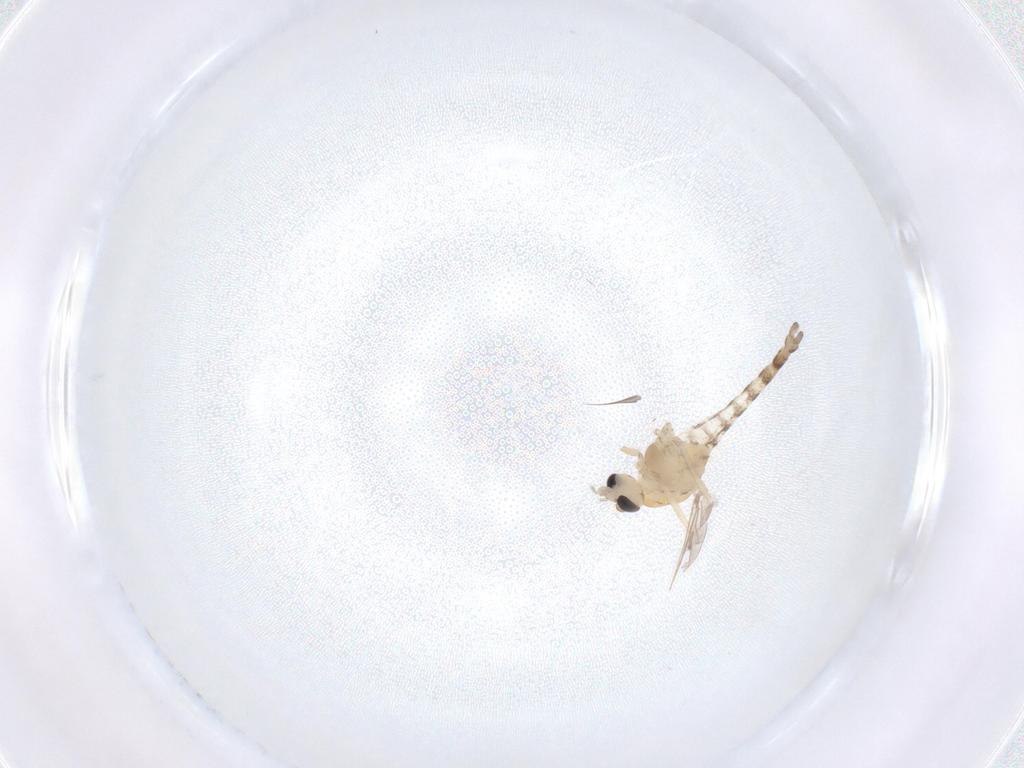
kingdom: Animalia
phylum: Arthropoda
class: Insecta
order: Diptera
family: Chironomidae
